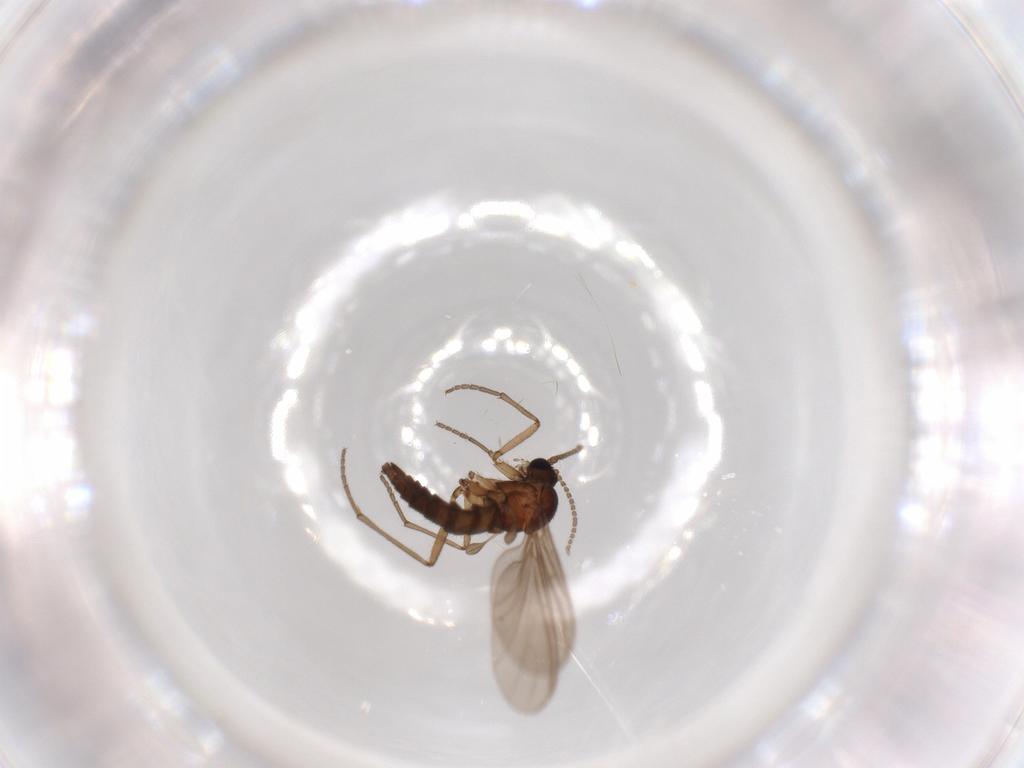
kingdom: Animalia
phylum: Arthropoda
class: Insecta
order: Diptera
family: Sciaridae
